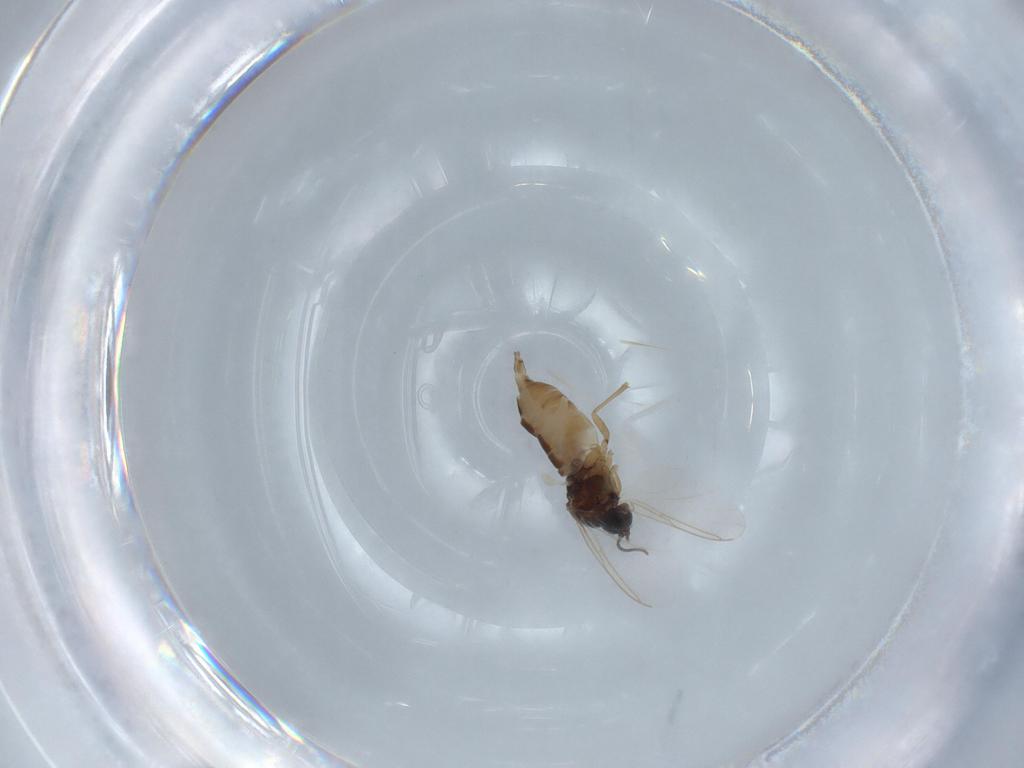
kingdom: Animalia
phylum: Arthropoda
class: Insecta
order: Diptera
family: Sciaridae
